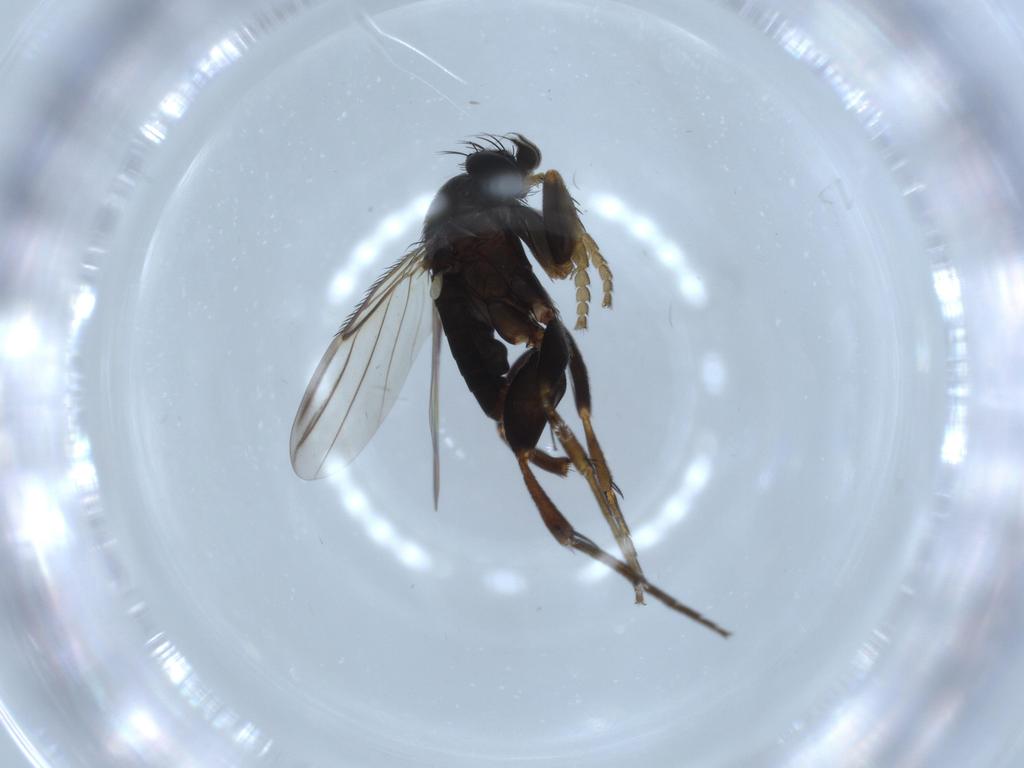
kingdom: Animalia
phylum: Arthropoda
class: Insecta
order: Diptera
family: Phoridae
